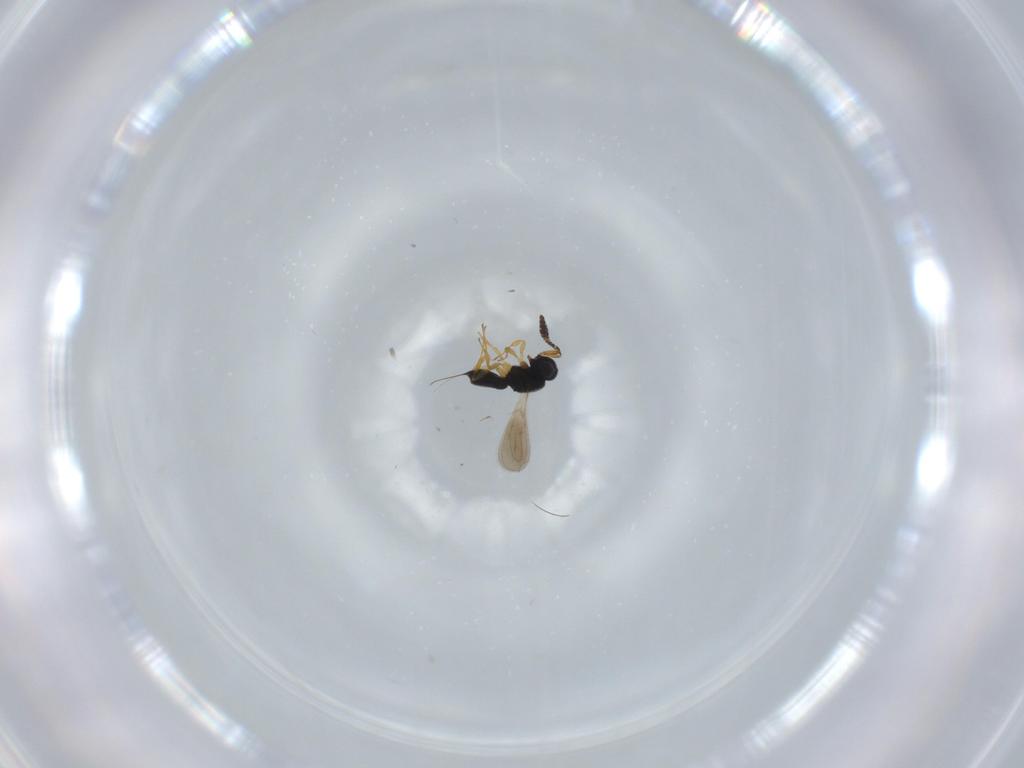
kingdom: Animalia
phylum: Arthropoda
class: Insecta
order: Hymenoptera
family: Scelionidae
